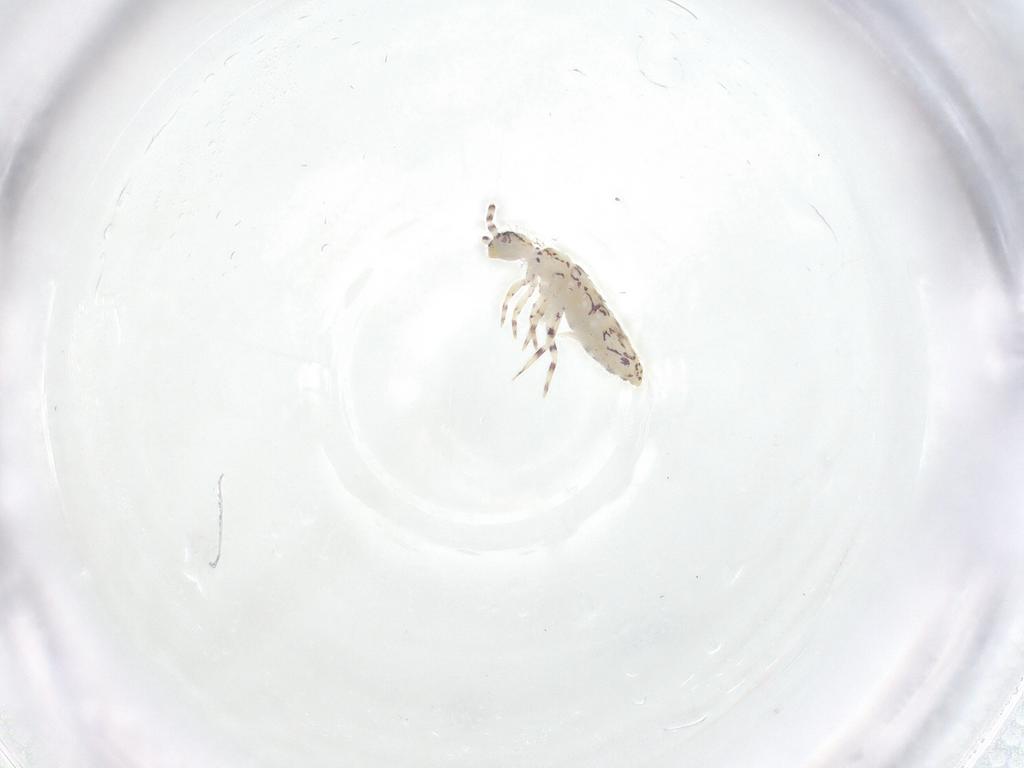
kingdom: Animalia
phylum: Arthropoda
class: Collembola
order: Entomobryomorpha
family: Entomobryidae
